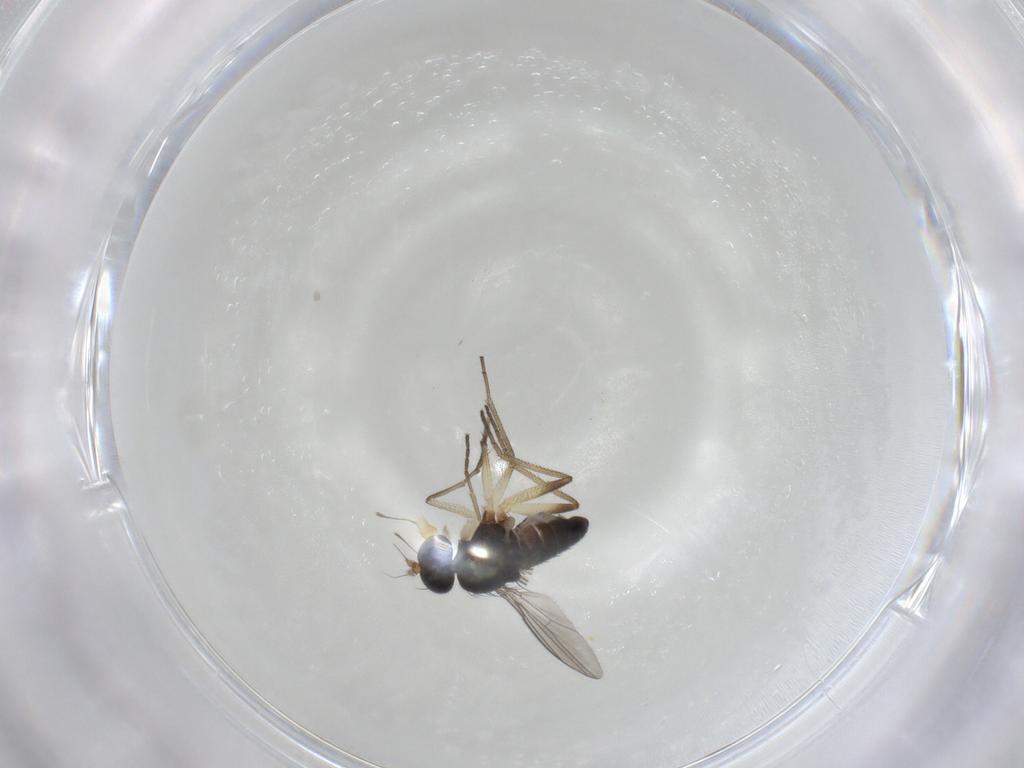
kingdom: Animalia
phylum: Arthropoda
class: Insecta
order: Diptera
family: Dolichopodidae
